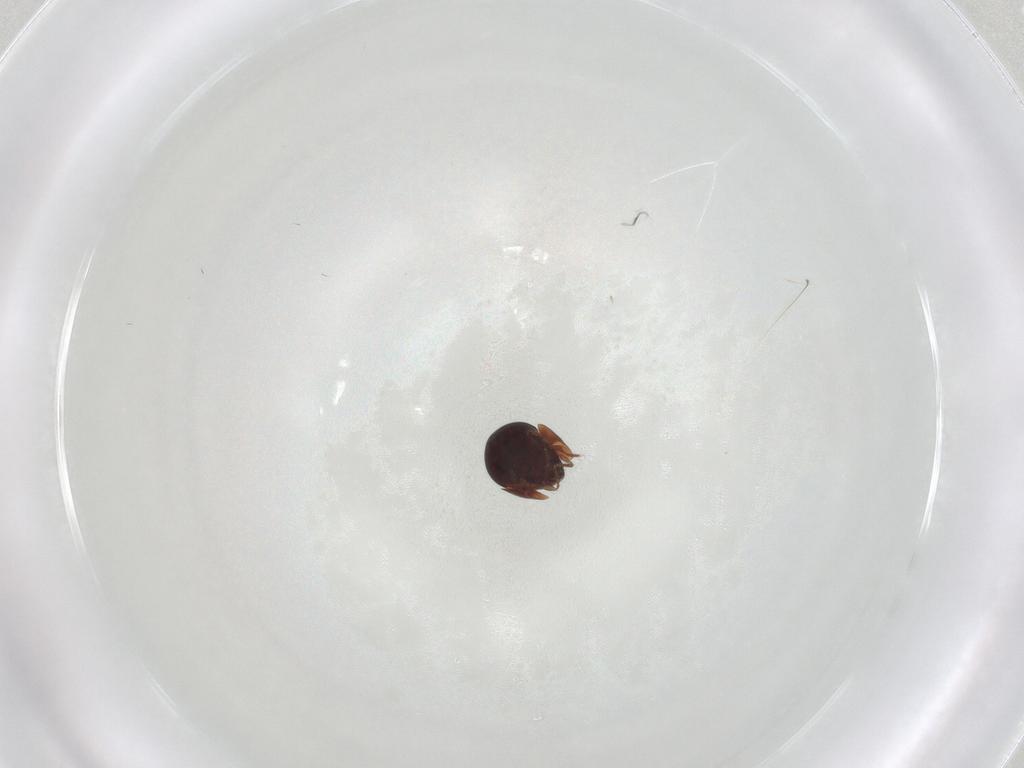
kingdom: Animalia
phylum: Arthropoda
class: Arachnida
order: Sarcoptiformes
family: Galumnidae
